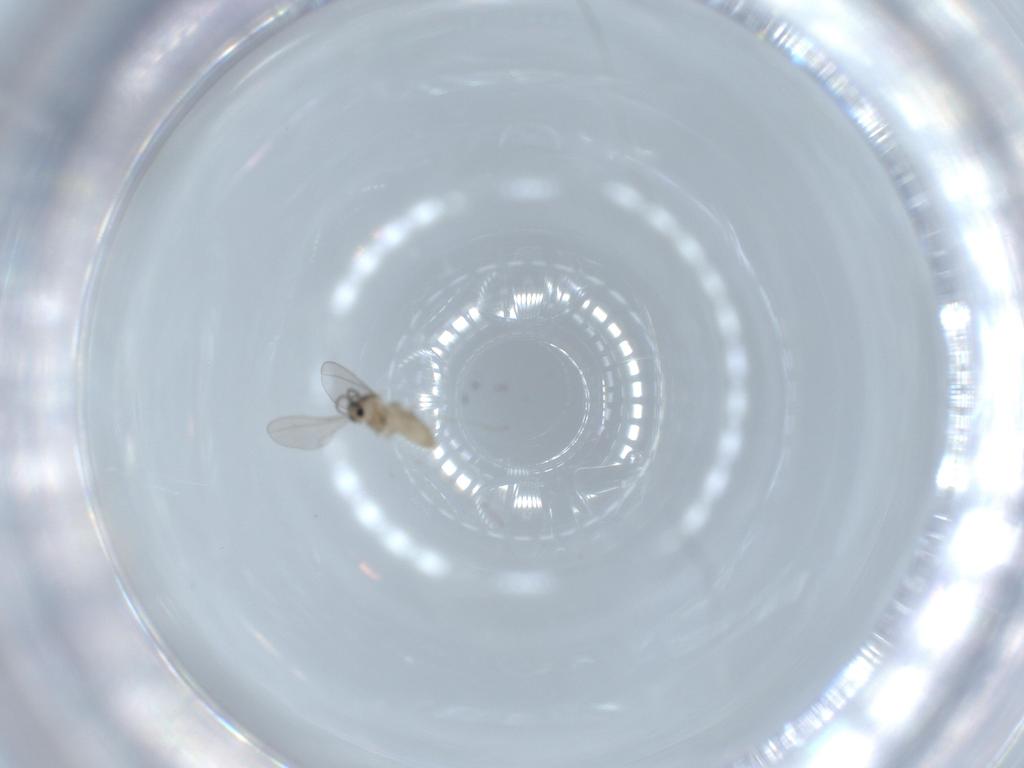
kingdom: Animalia
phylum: Arthropoda
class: Insecta
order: Diptera
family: Cecidomyiidae
